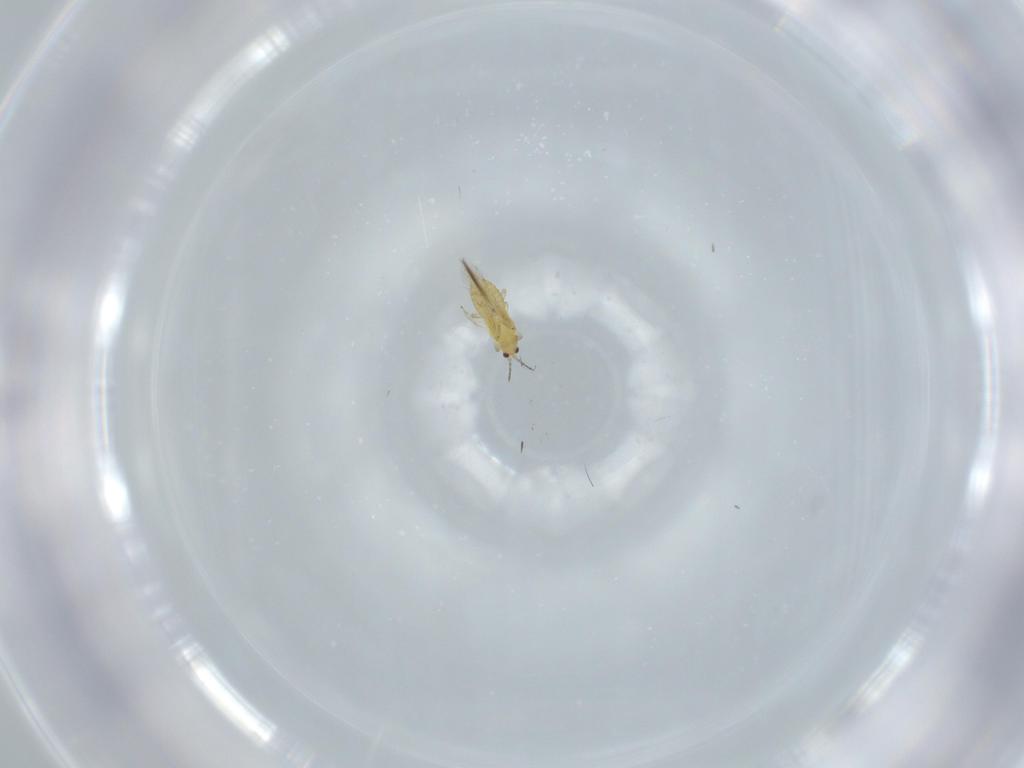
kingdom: Animalia
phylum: Arthropoda
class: Insecta
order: Thysanoptera
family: Thripidae
